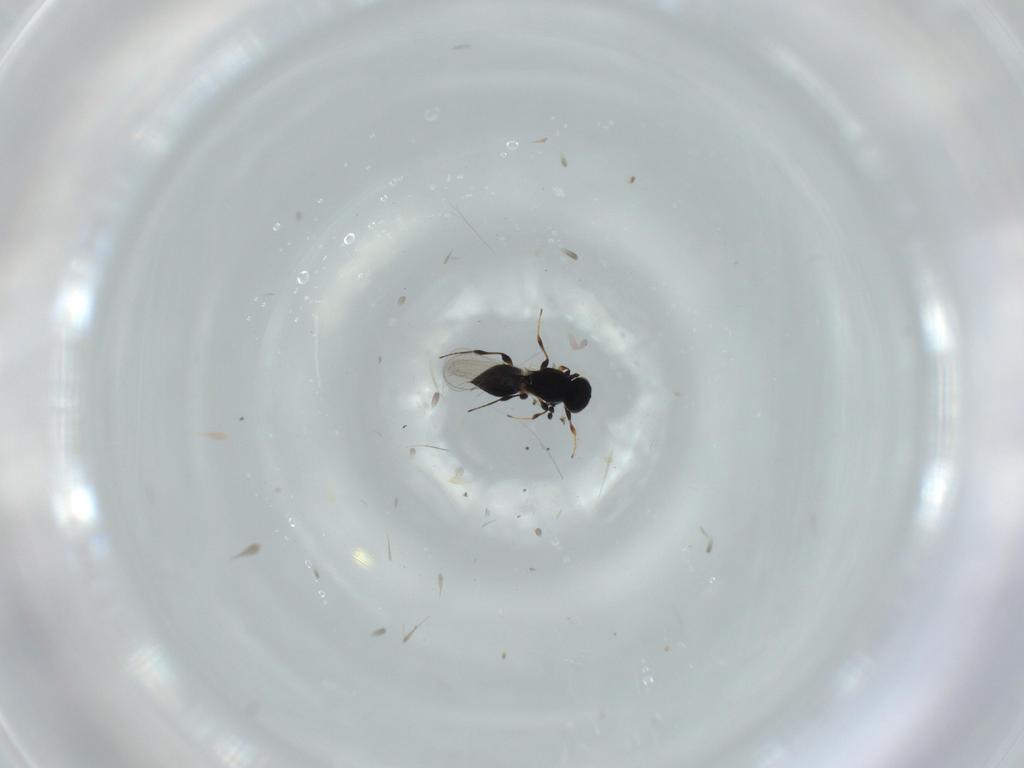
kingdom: Animalia
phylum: Arthropoda
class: Insecta
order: Hymenoptera
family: Platygastridae
